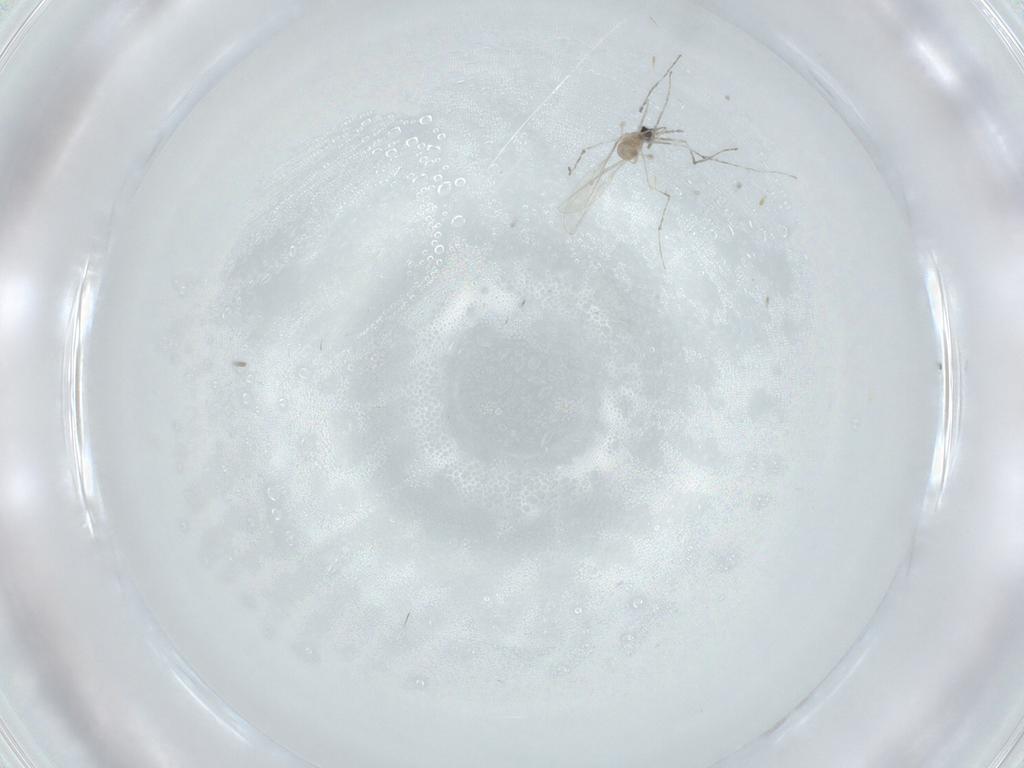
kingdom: Animalia
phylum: Arthropoda
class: Insecta
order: Diptera
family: Cecidomyiidae
